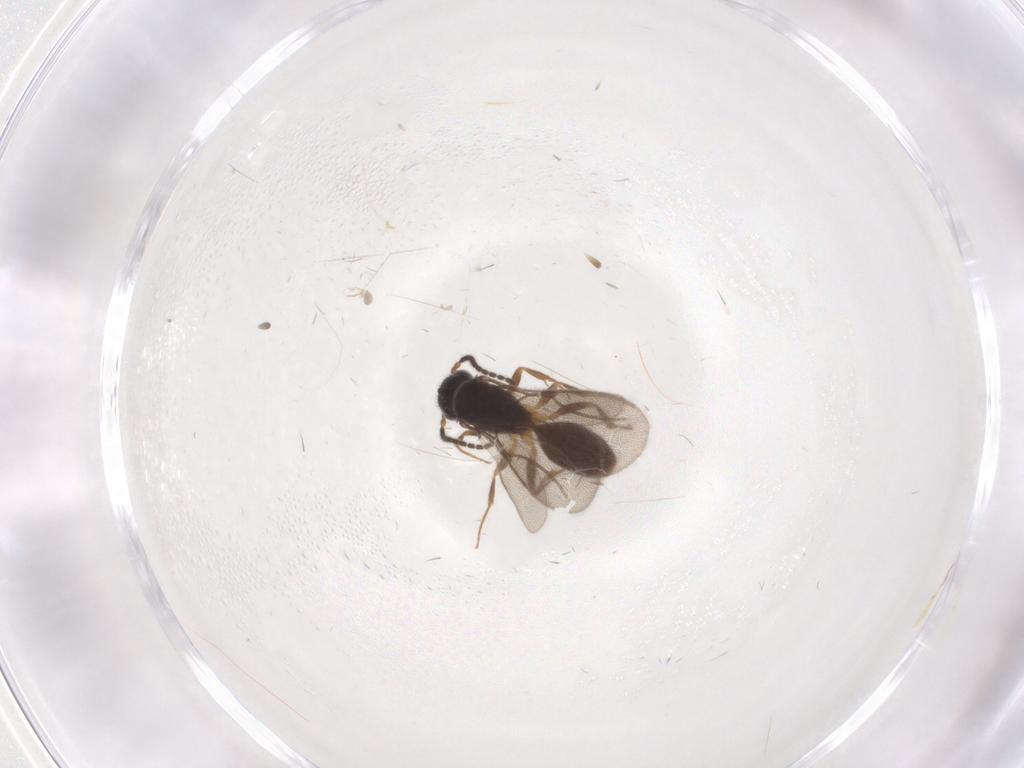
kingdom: Animalia
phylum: Arthropoda
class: Insecta
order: Hymenoptera
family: Bethylidae
